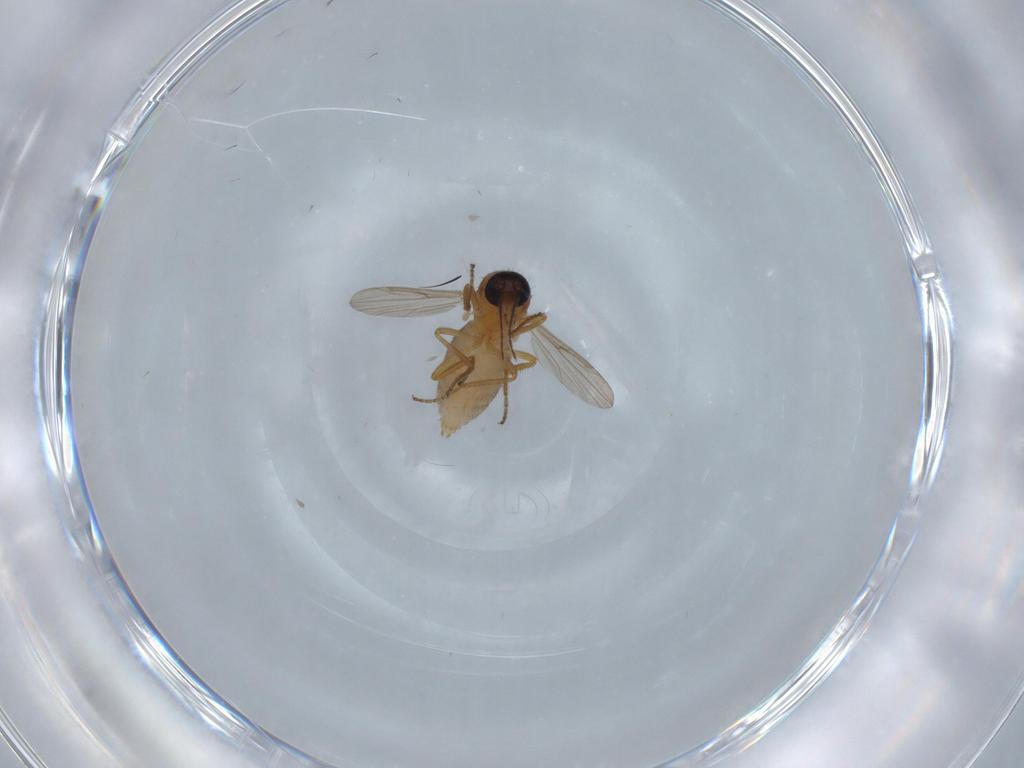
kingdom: Animalia
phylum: Arthropoda
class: Insecta
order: Diptera
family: Ceratopogonidae
